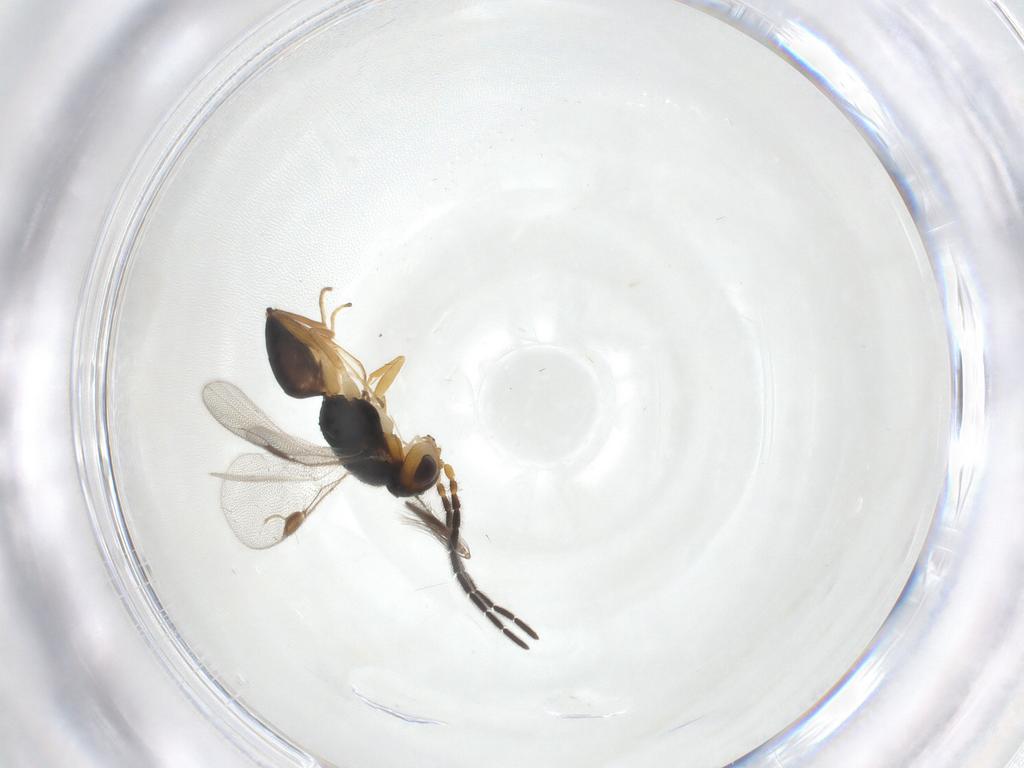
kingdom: Animalia
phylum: Arthropoda
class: Insecta
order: Hymenoptera
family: Dryinidae
